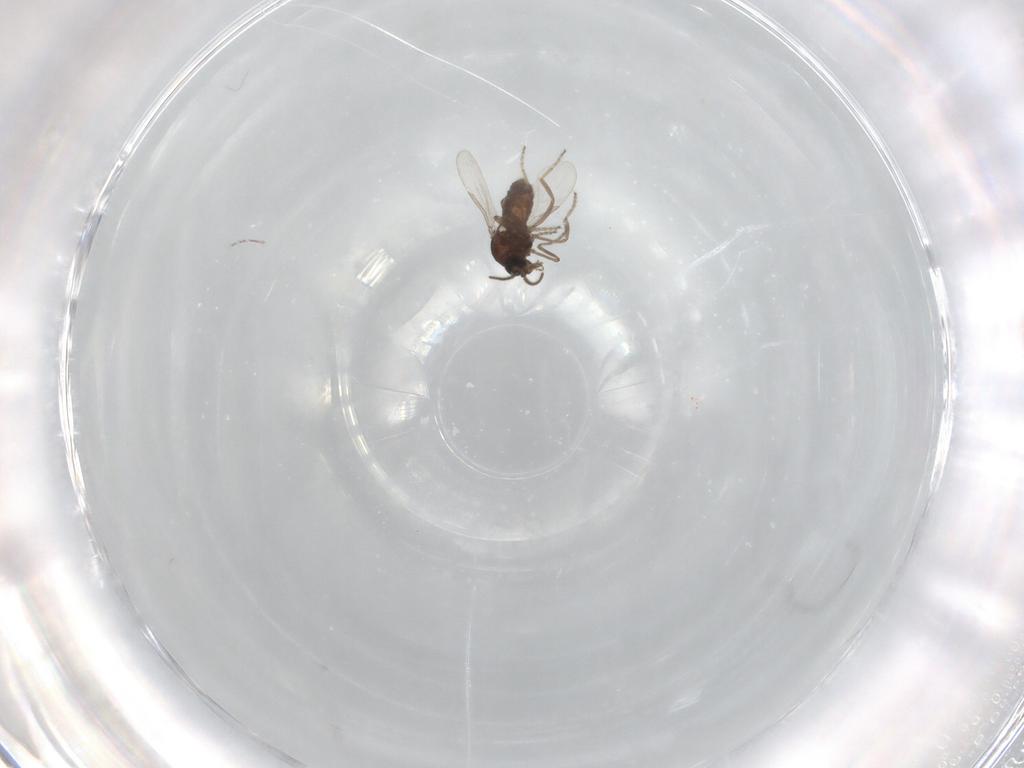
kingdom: Animalia
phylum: Arthropoda
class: Insecta
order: Diptera
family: Ceratopogonidae
